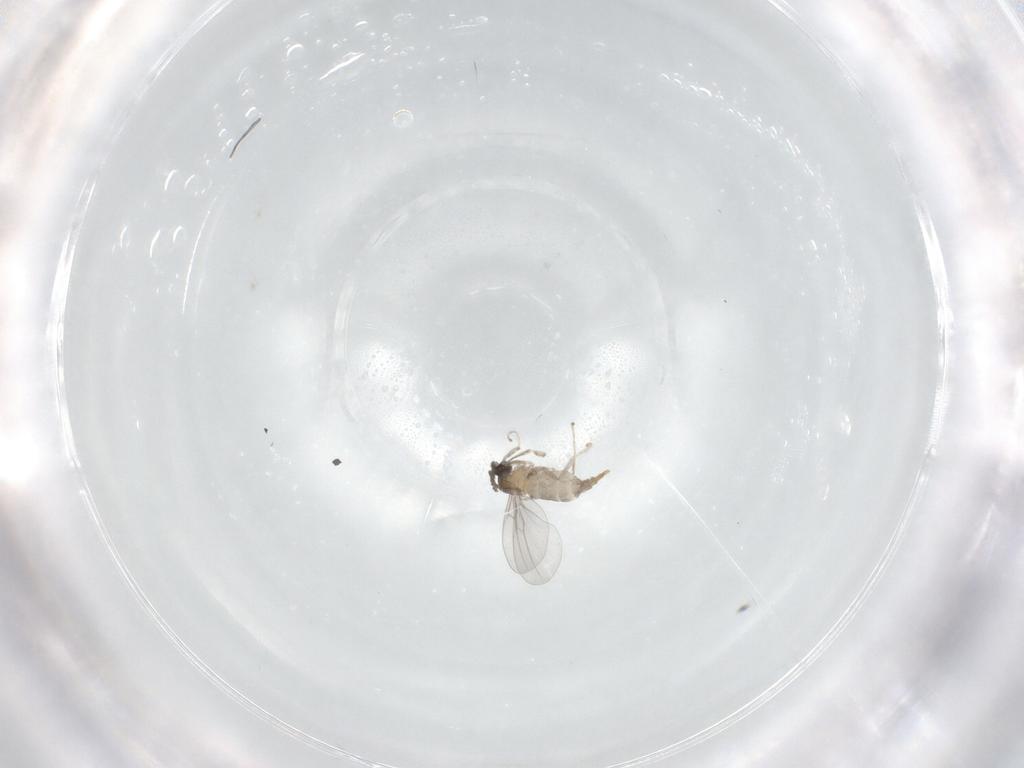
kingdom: Animalia
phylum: Arthropoda
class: Insecta
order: Diptera
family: Cecidomyiidae
